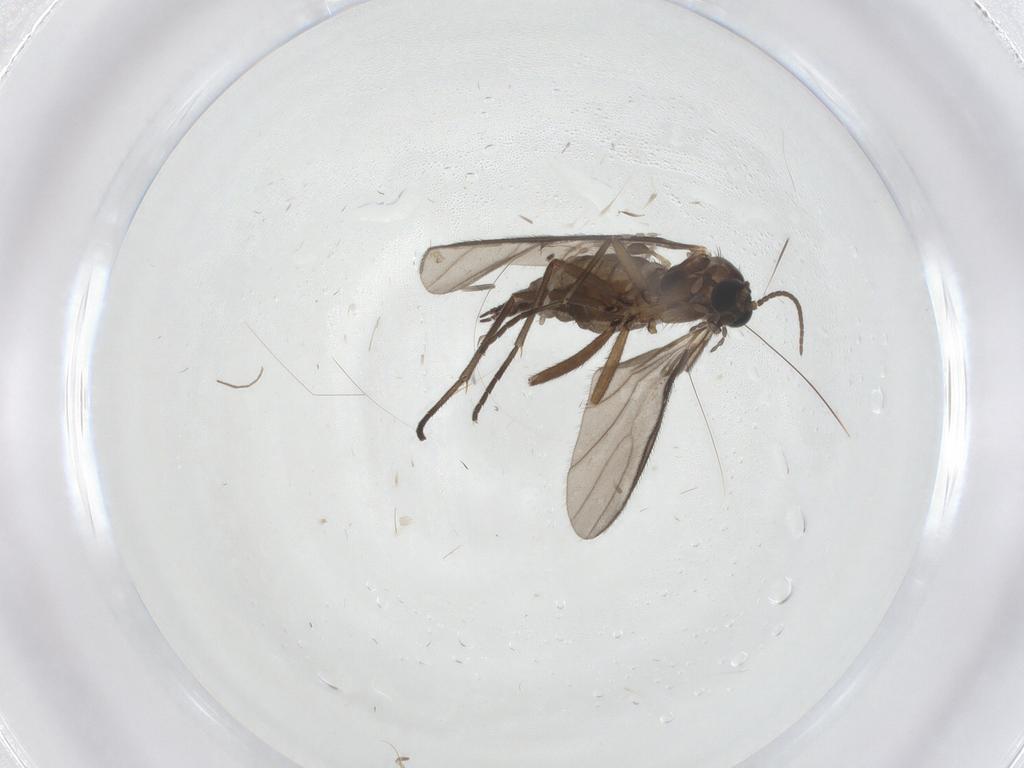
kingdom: Animalia
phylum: Arthropoda
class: Insecta
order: Diptera
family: Sciaridae
